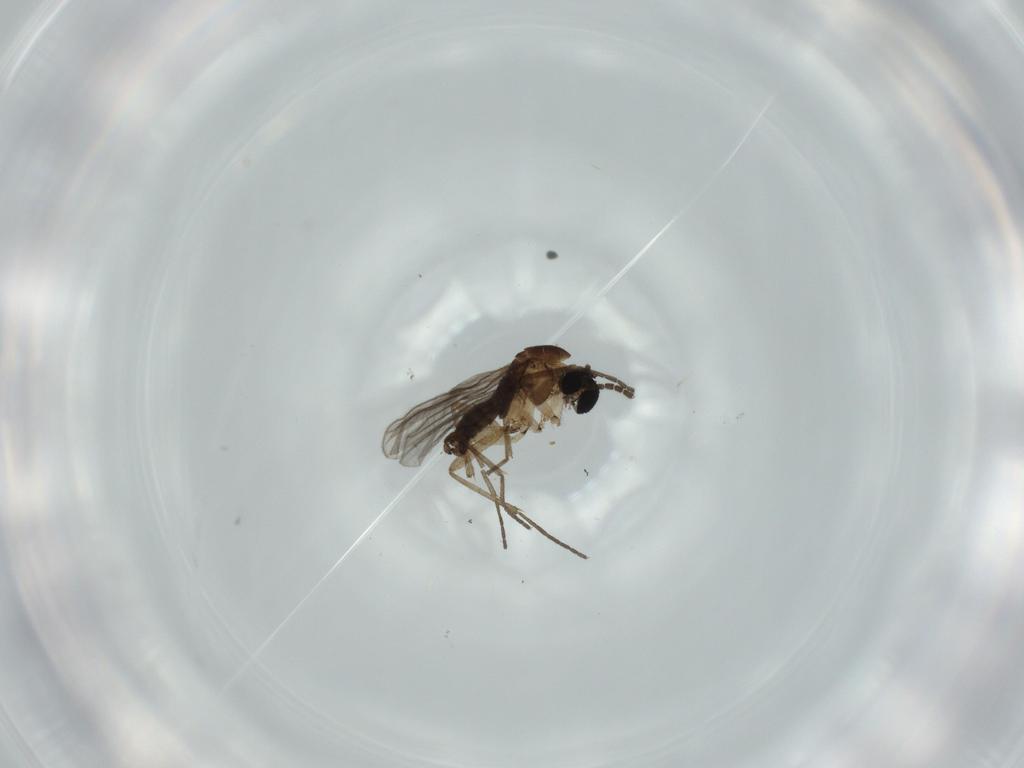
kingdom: Animalia
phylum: Arthropoda
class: Insecta
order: Diptera
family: Sciaridae
